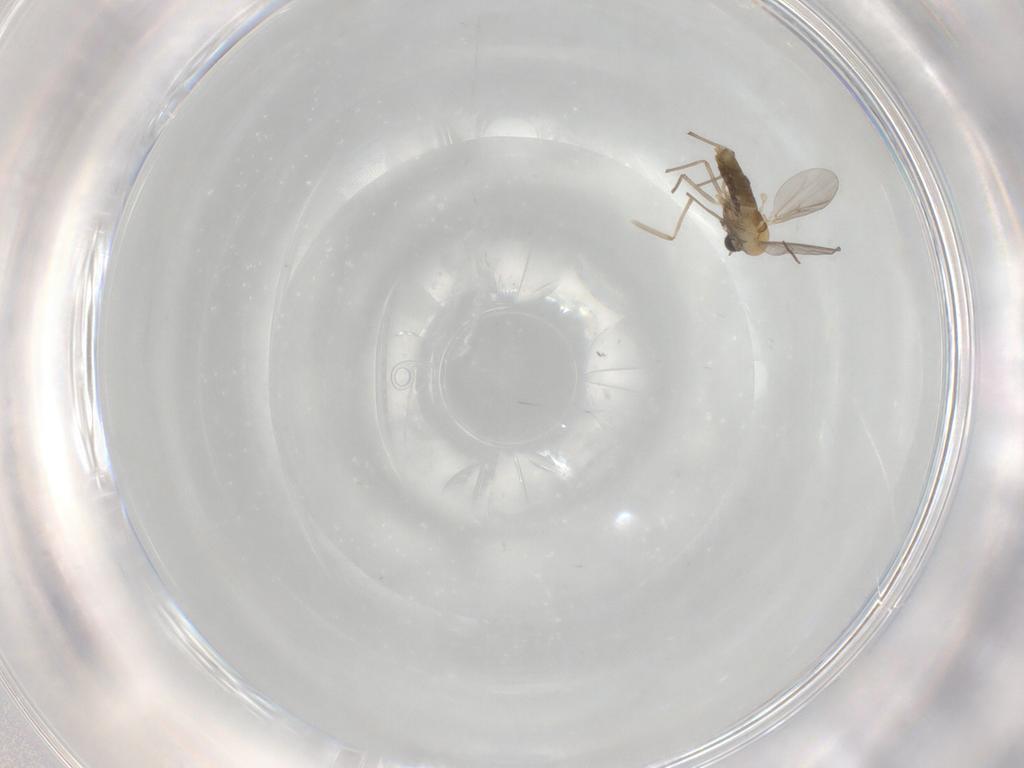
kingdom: Animalia
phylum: Arthropoda
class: Insecta
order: Diptera
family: Chironomidae
